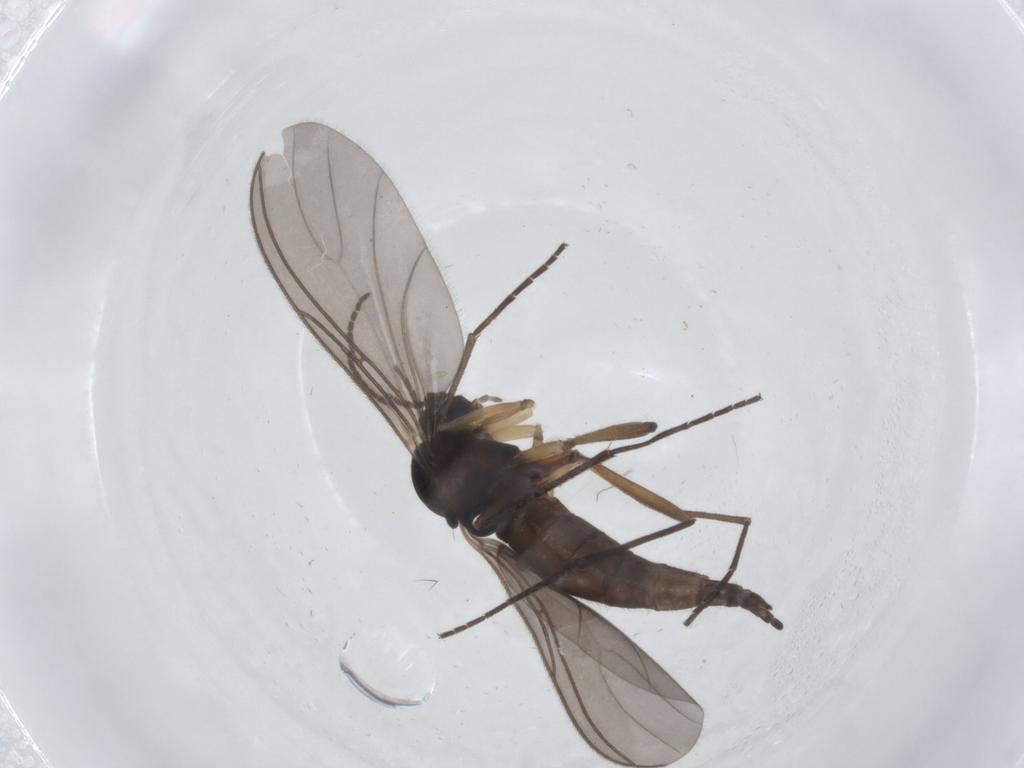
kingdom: Animalia
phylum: Arthropoda
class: Insecta
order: Diptera
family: Sciaridae
